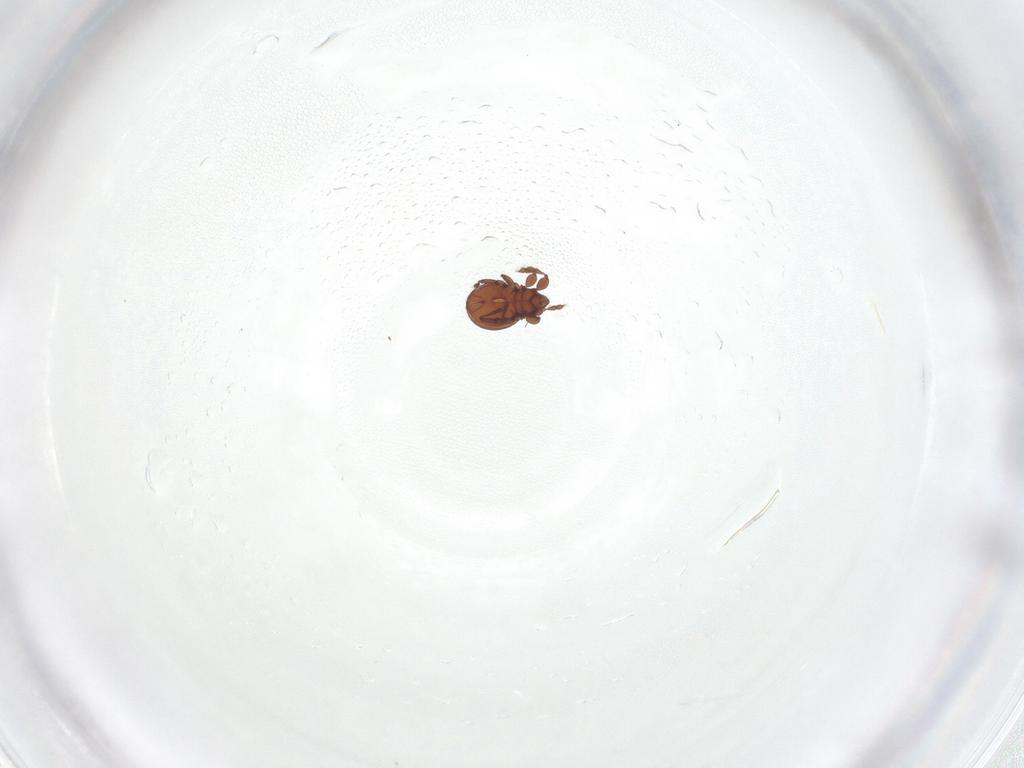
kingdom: Animalia
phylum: Arthropoda
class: Arachnida
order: Sarcoptiformes
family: Eremaeidae
